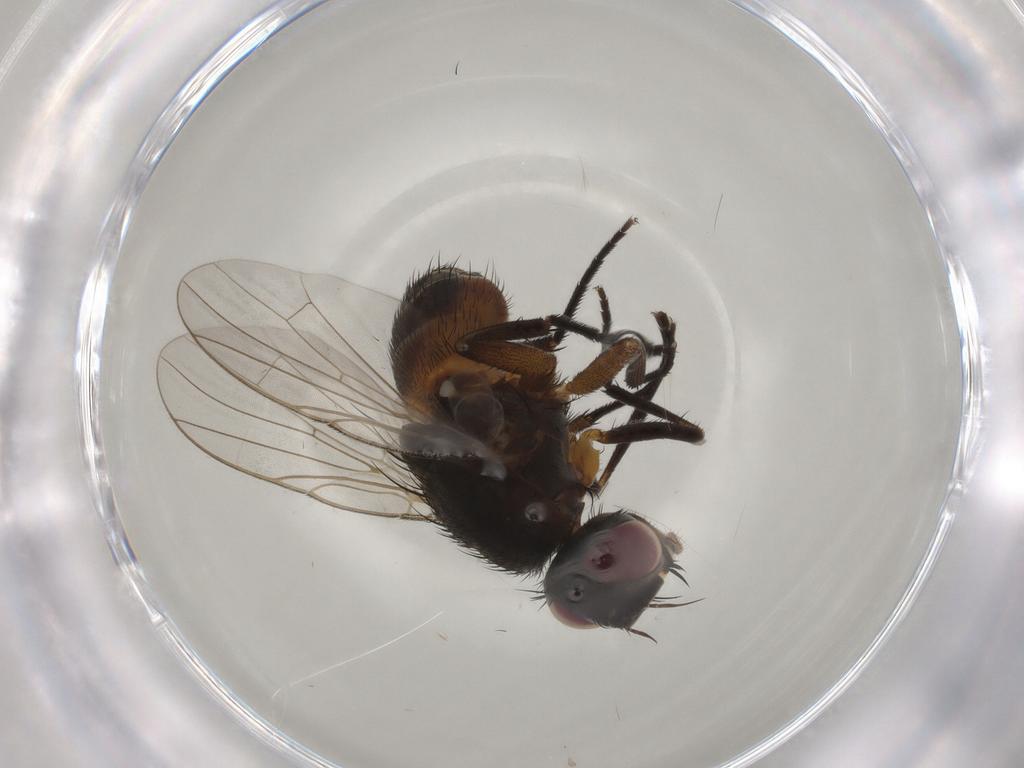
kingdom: Animalia
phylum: Arthropoda
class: Insecta
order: Diptera
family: Muscidae
